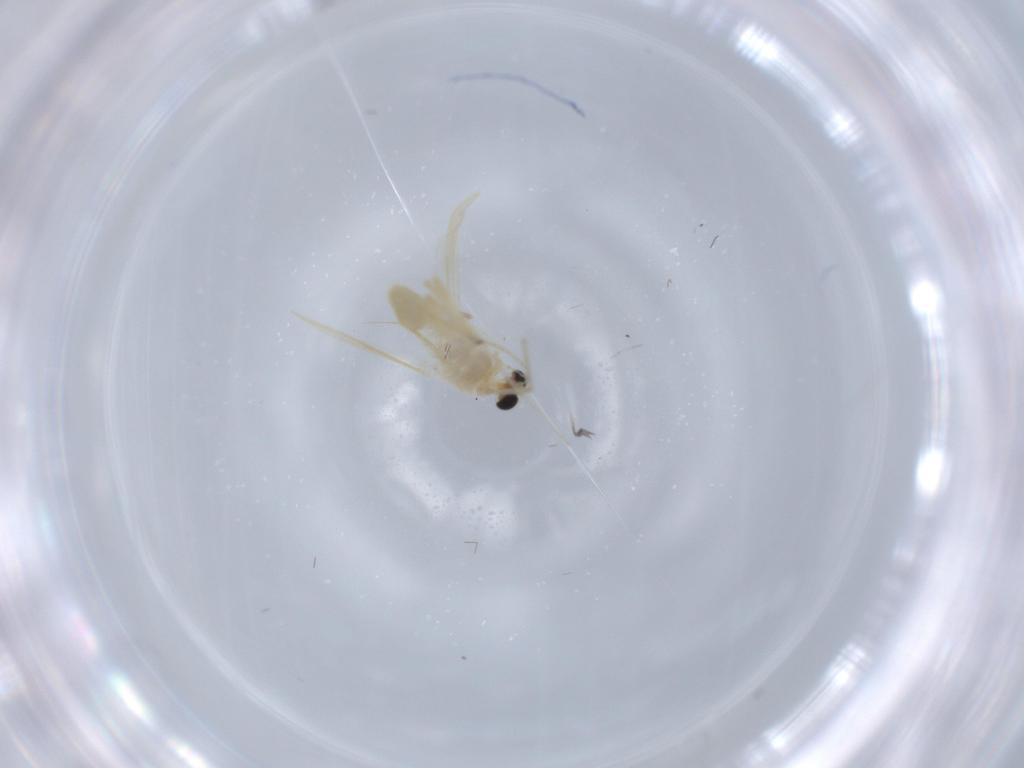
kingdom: Animalia
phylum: Arthropoda
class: Insecta
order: Diptera
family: Chironomidae
